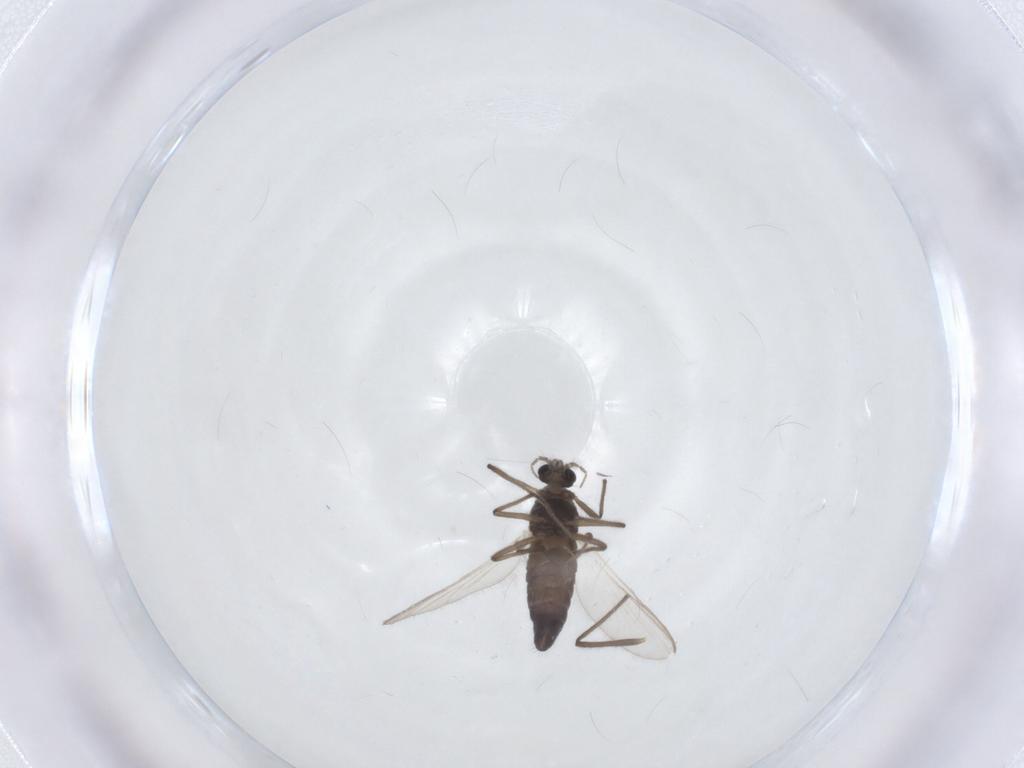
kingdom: Animalia
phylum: Arthropoda
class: Insecta
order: Diptera
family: Chironomidae
